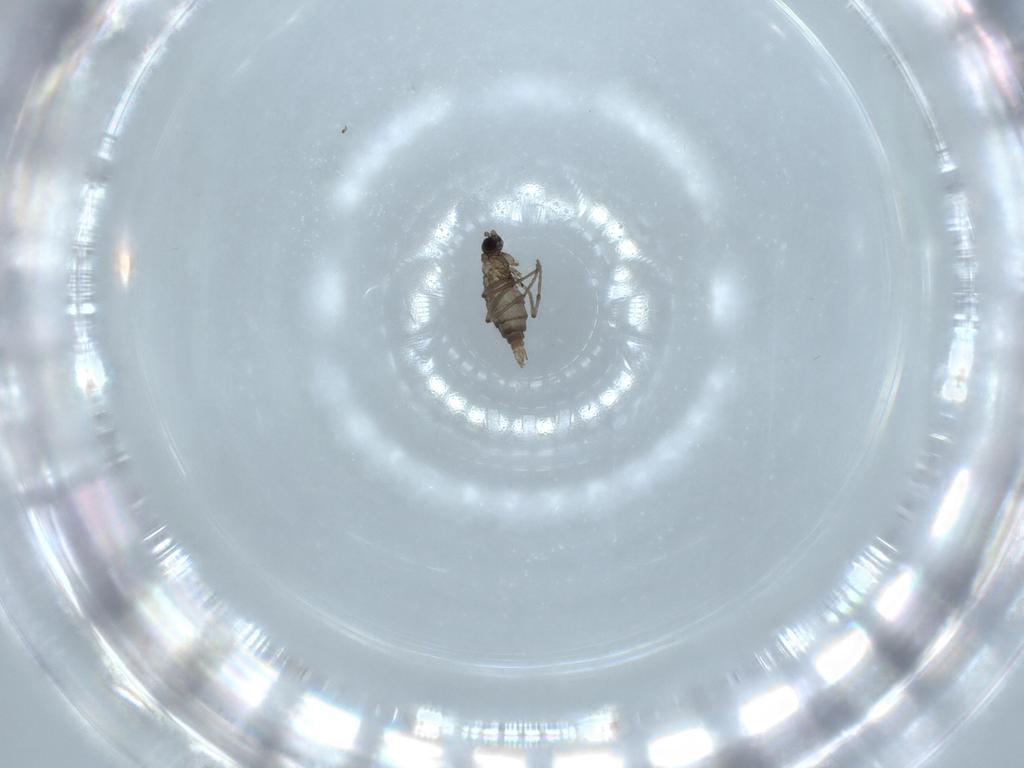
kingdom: Animalia
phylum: Arthropoda
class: Insecta
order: Diptera
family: Sciaridae
